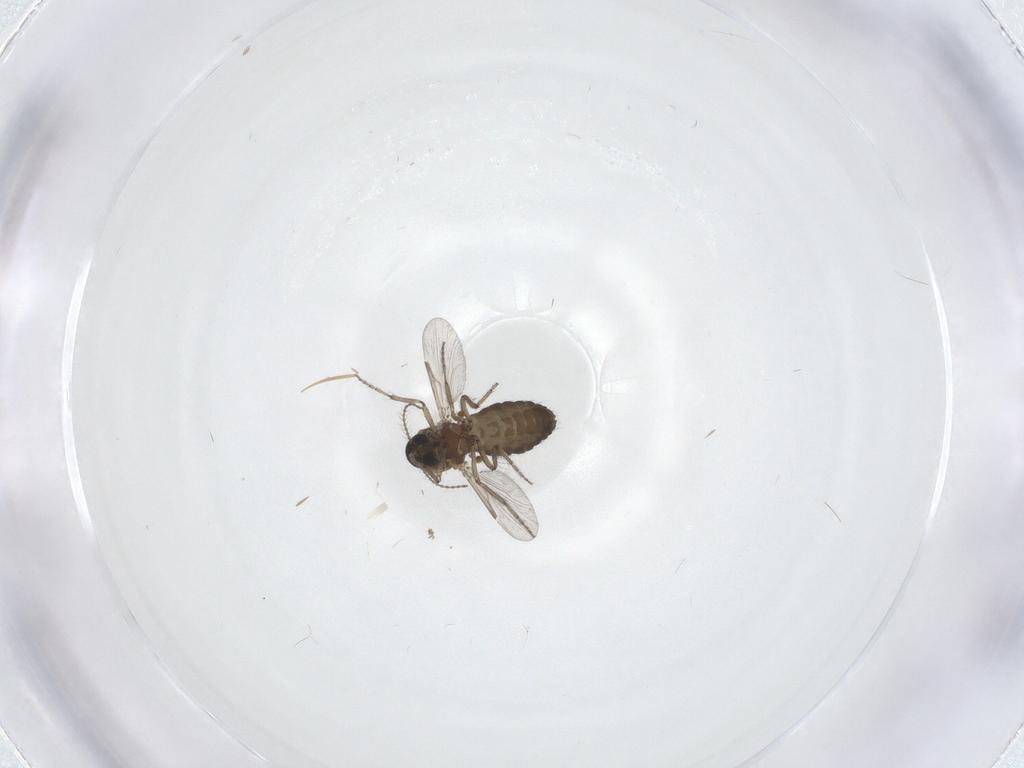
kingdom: Animalia
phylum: Arthropoda
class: Insecta
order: Diptera
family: Ceratopogonidae
